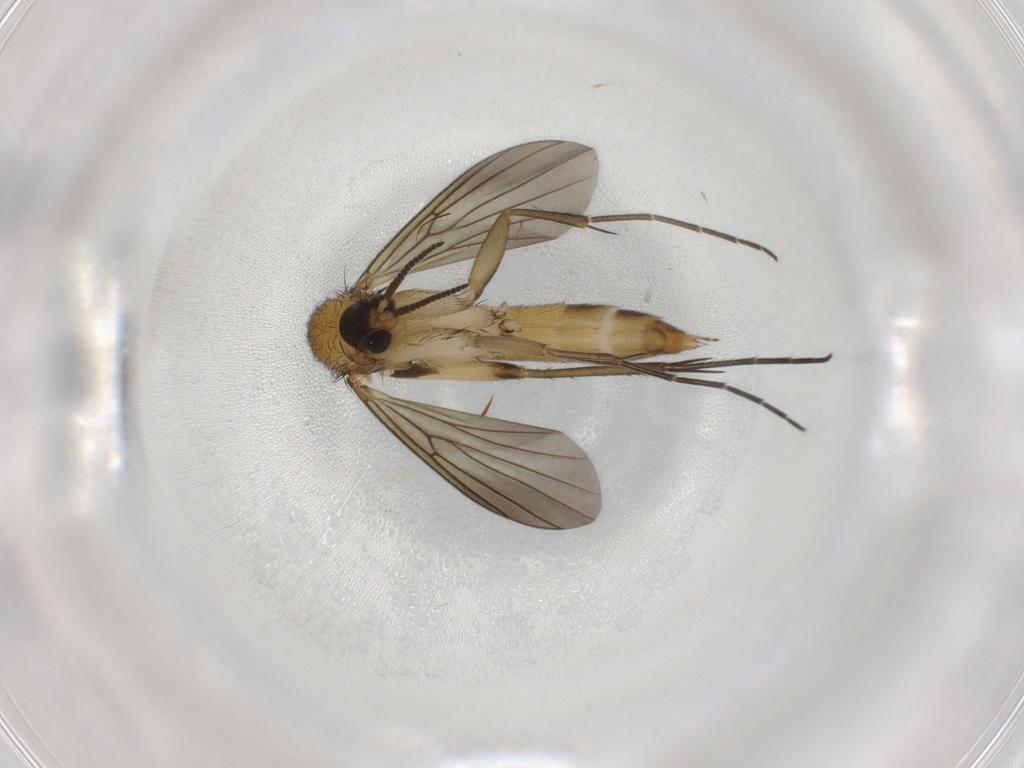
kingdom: Animalia
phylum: Arthropoda
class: Insecta
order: Diptera
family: Mycetophilidae
